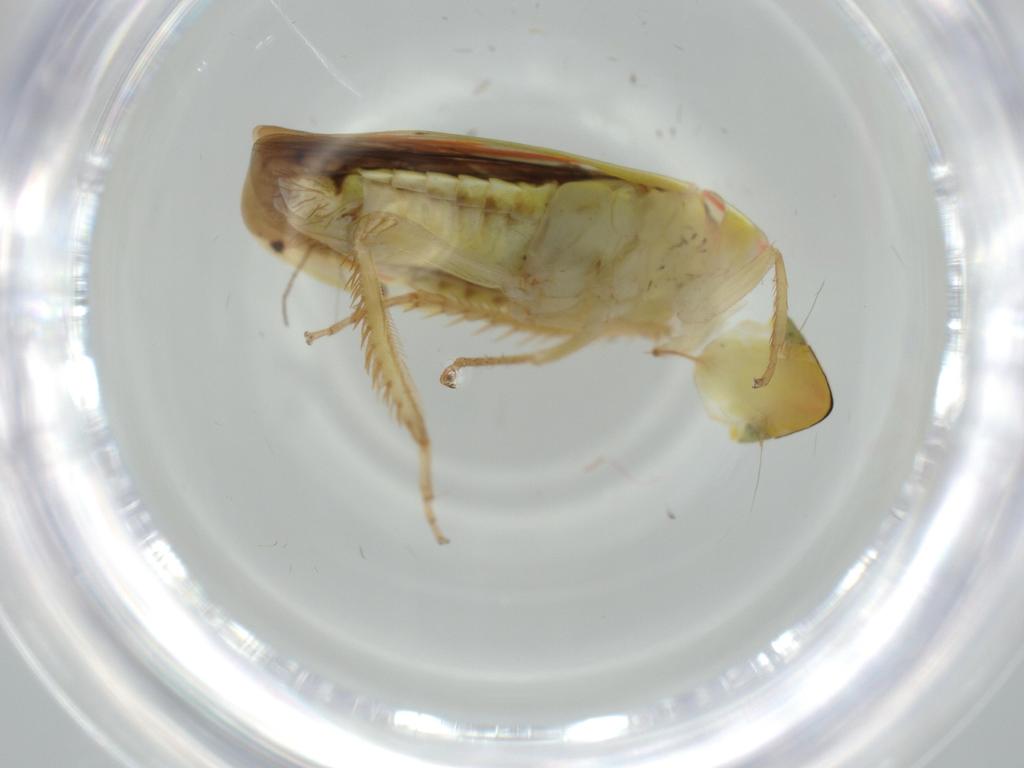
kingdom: Animalia
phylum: Arthropoda
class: Insecta
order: Hemiptera
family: Cicadellidae
